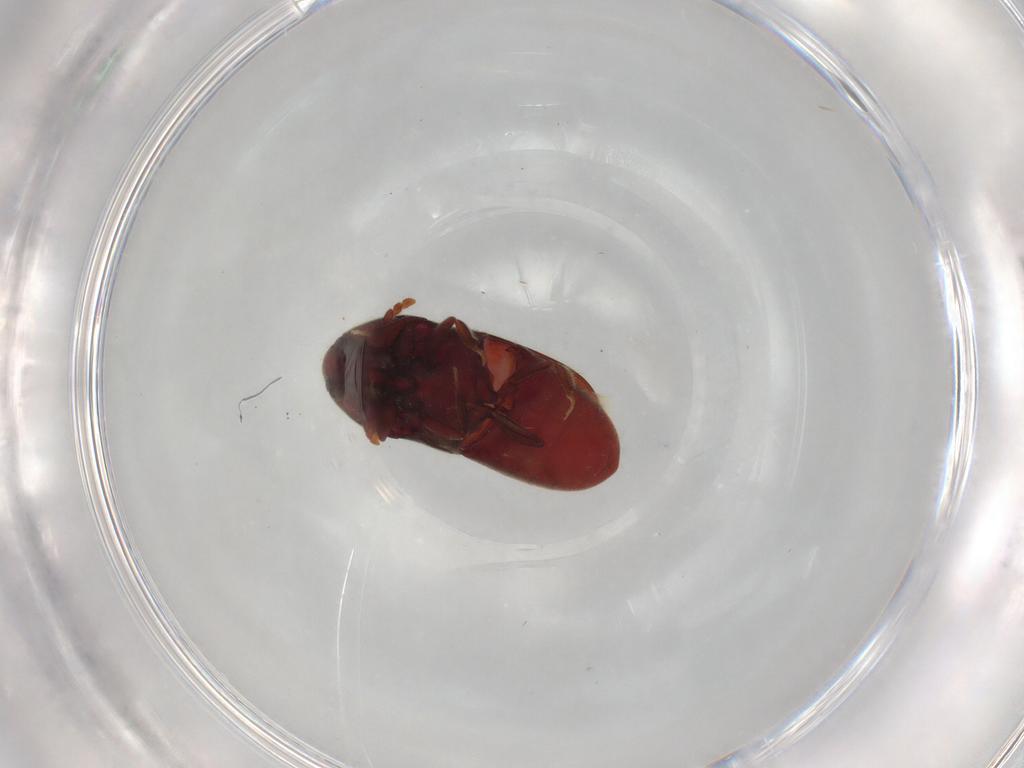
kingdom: Animalia
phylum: Arthropoda
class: Insecta
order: Coleoptera
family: Throscidae
